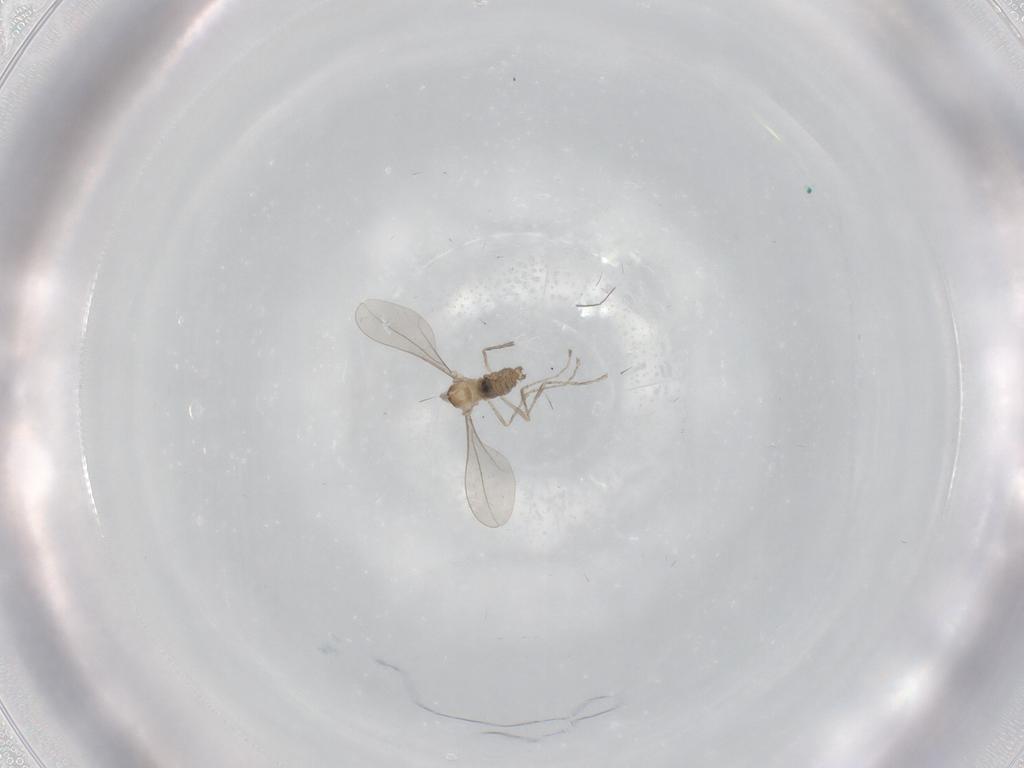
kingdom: Animalia
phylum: Arthropoda
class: Insecta
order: Diptera
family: Cecidomyiidae
